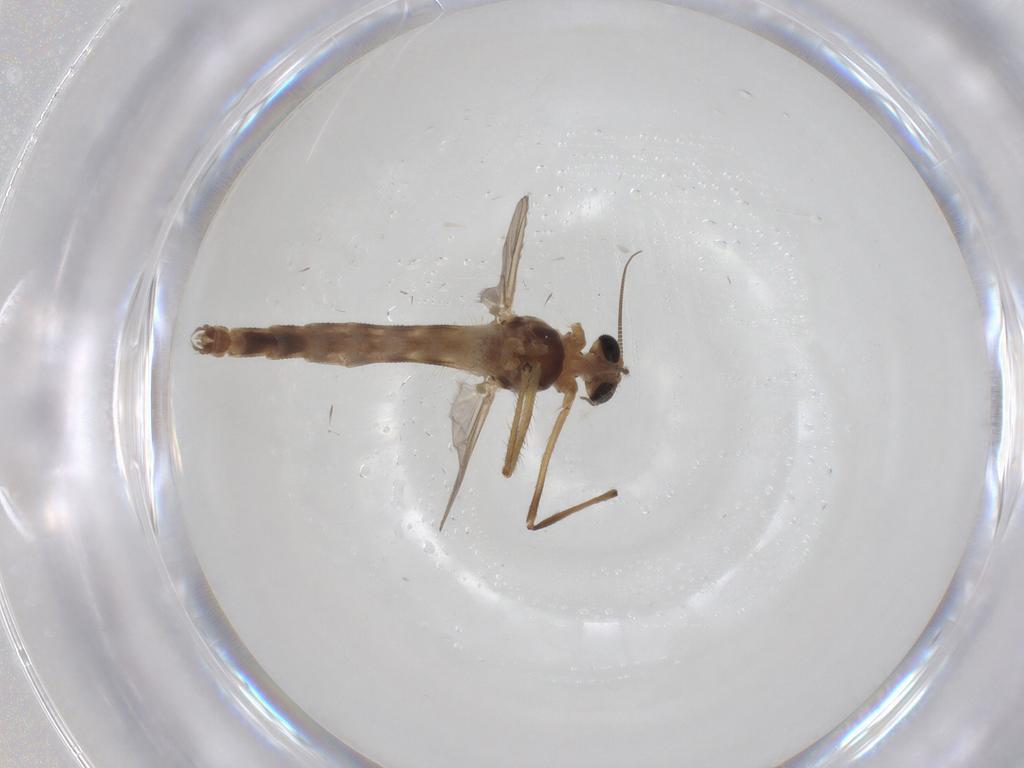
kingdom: Animalia
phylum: Arthropoda
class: Insecta
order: Diptera
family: Chironomidae
